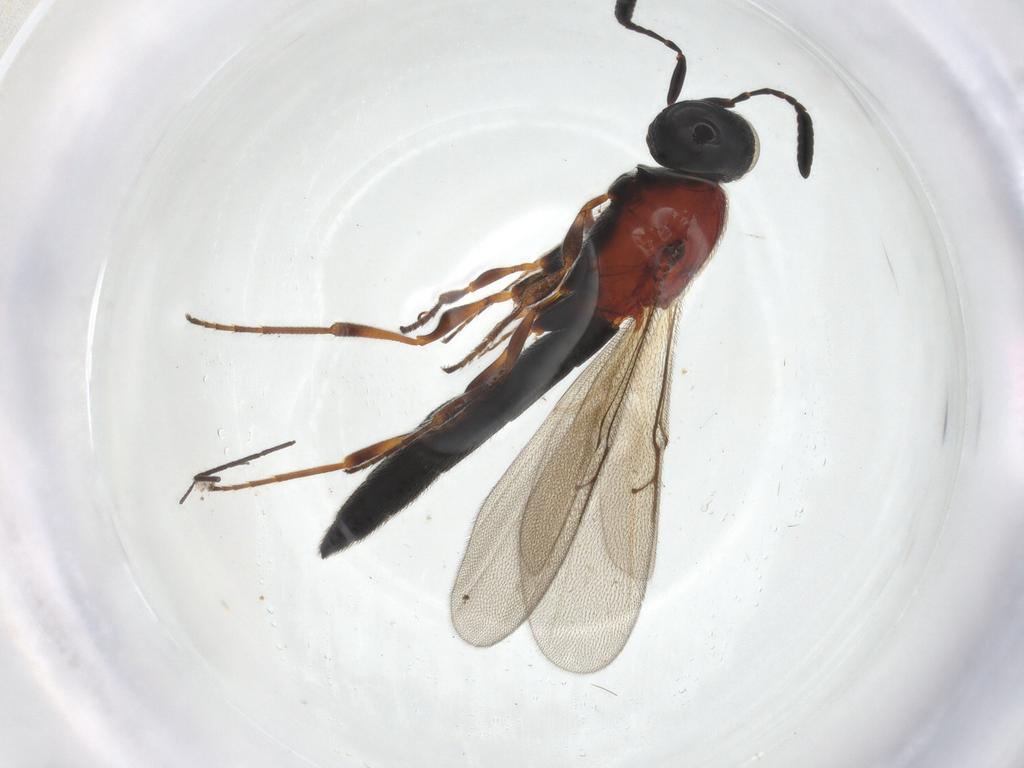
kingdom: Animalia
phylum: Arthropoda
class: Insecta
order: Hymenoptera
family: Scelionidae
